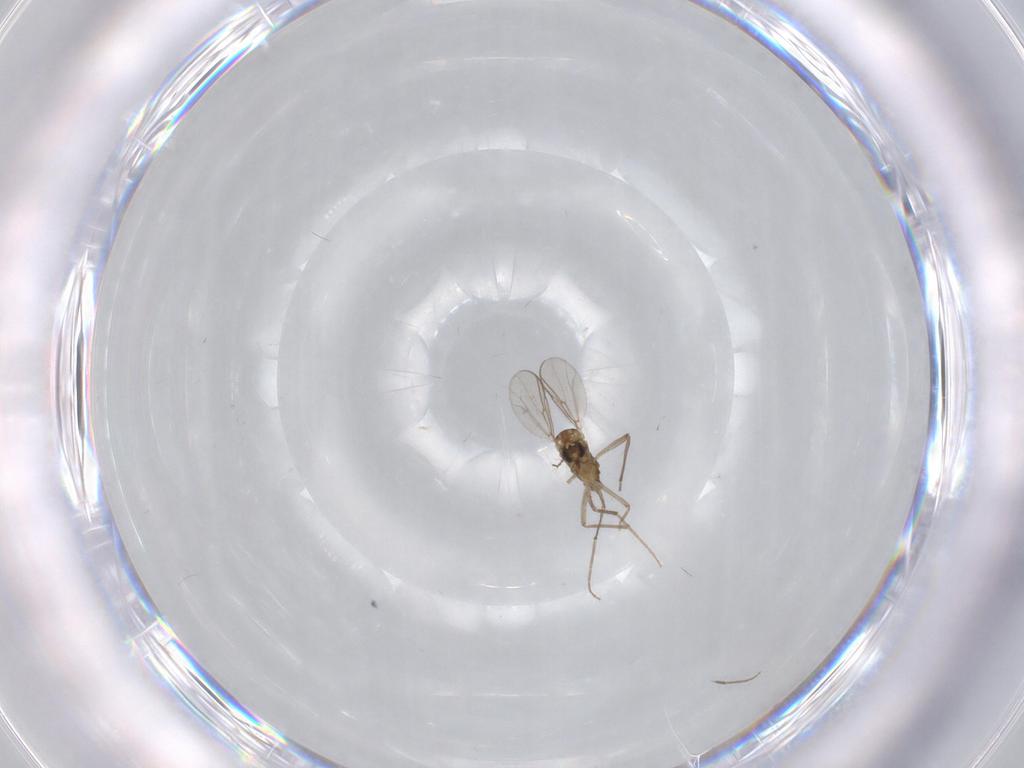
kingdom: Animalia
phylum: Arthropoda
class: Insecta
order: Diptera
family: Chironomidae
